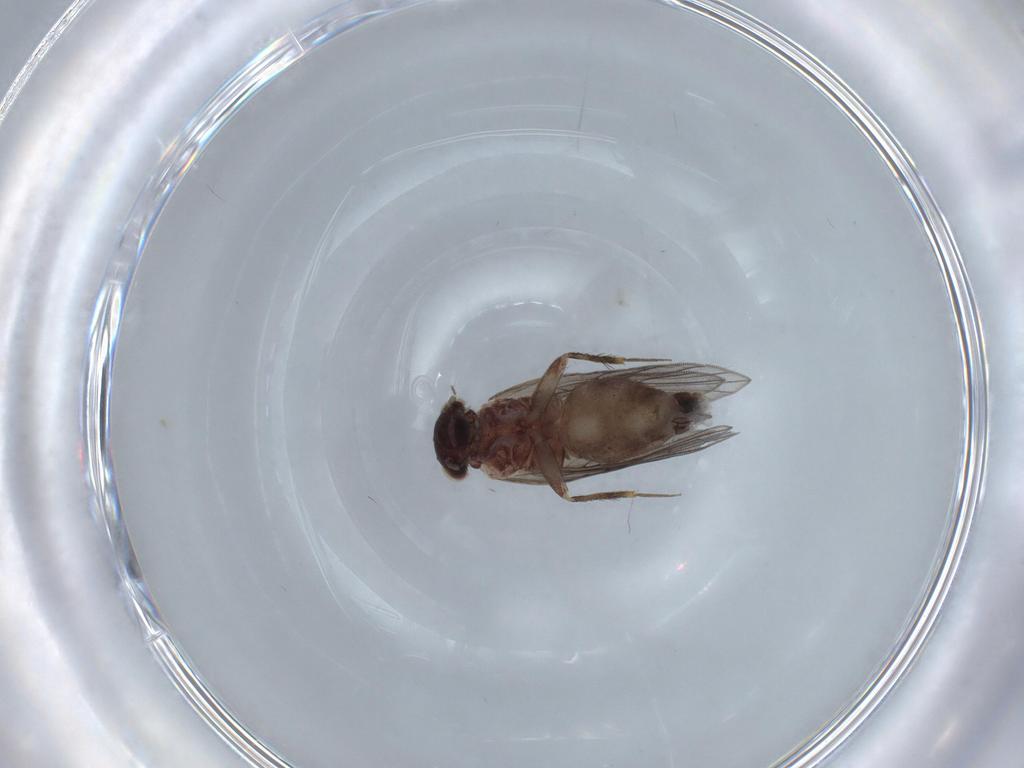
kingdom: Animalia
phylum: Arthropoda
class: Insecta
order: Psocodea
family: Lepidopsocidae
